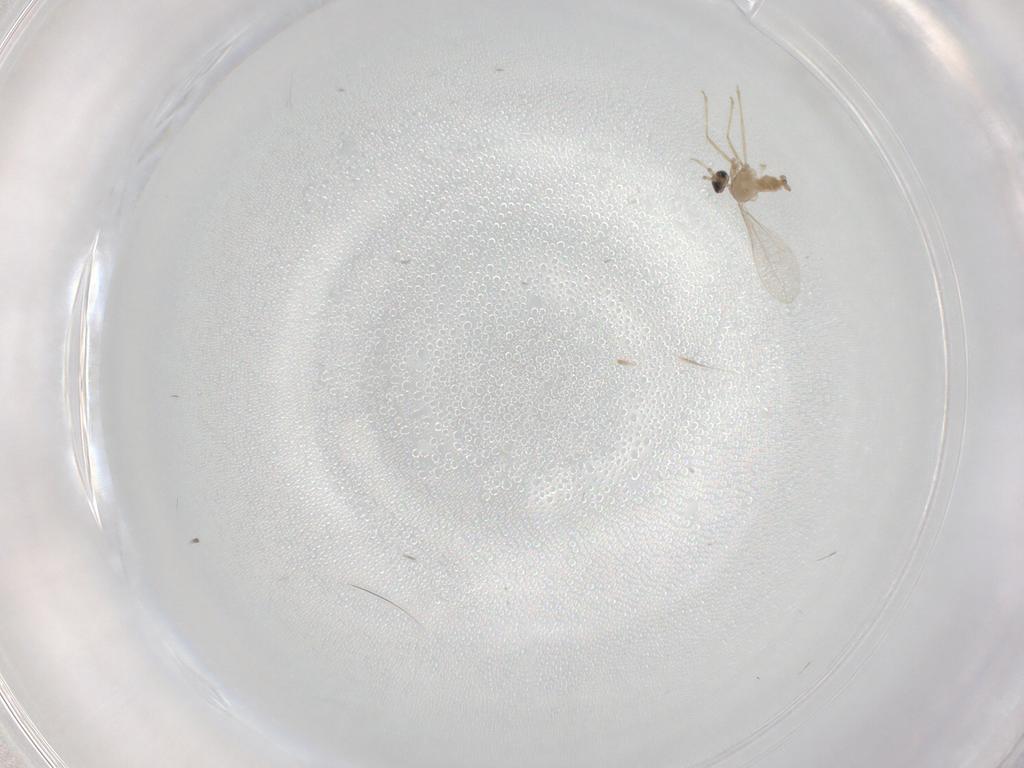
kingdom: Animalia
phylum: Arthropoda
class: Insecta
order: Diptera
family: Cecidomyiidae
